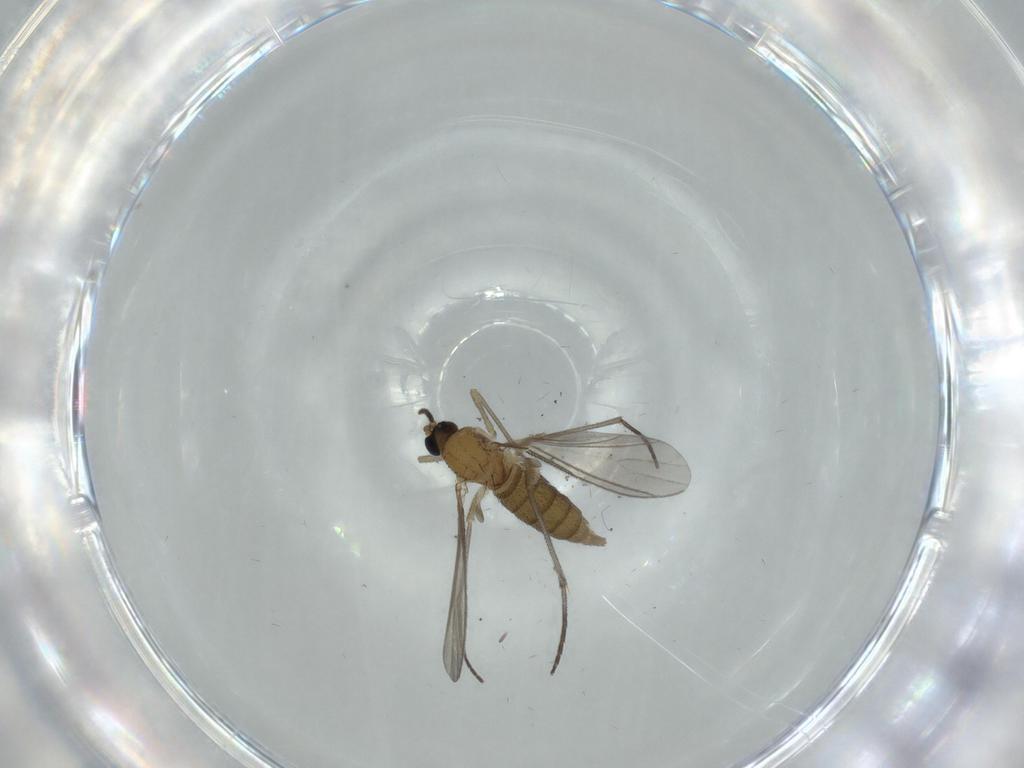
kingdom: Animalia
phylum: Arthropoda
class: Insecta
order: Diptera
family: Sciaridae
